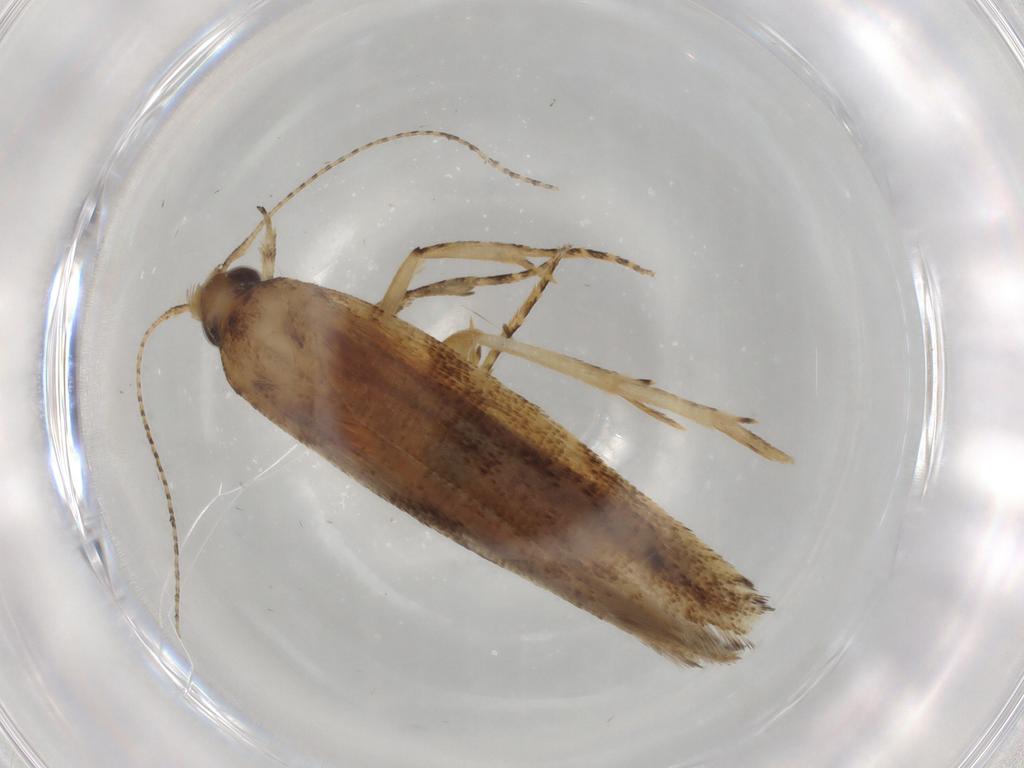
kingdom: Animalia
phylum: Arthropoda
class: Insecta
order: Lepidoptera
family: Gelechiidae
